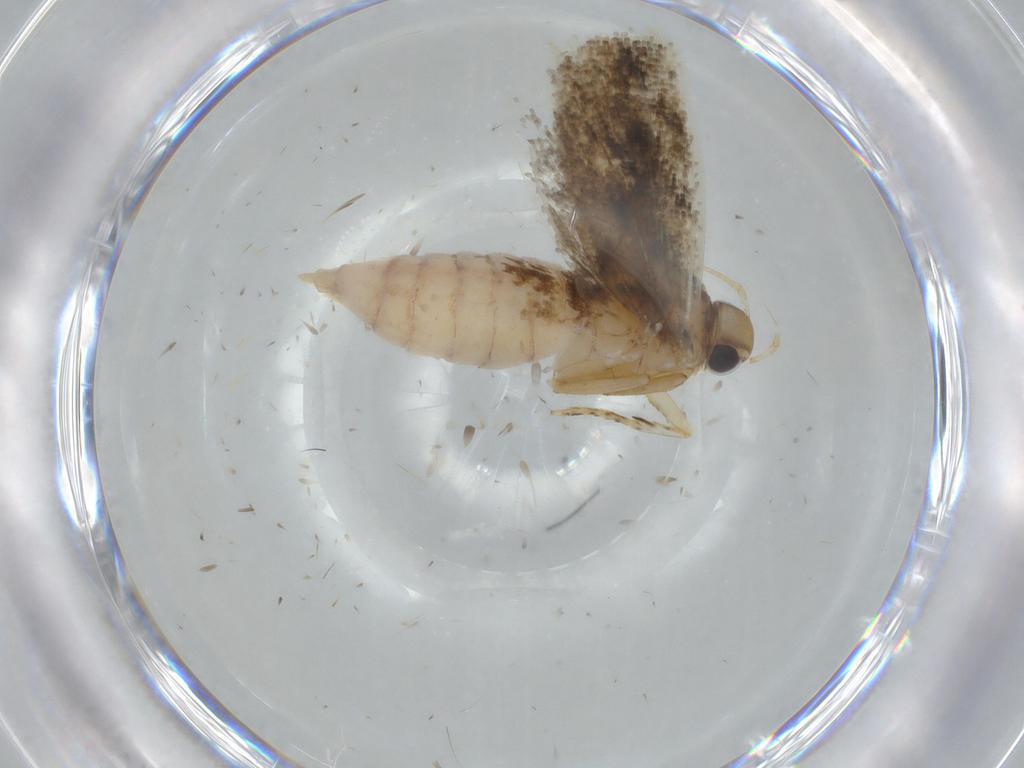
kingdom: Animalia
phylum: Arthropoda
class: Insecta
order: Lepidoptera
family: Gelechiidae
